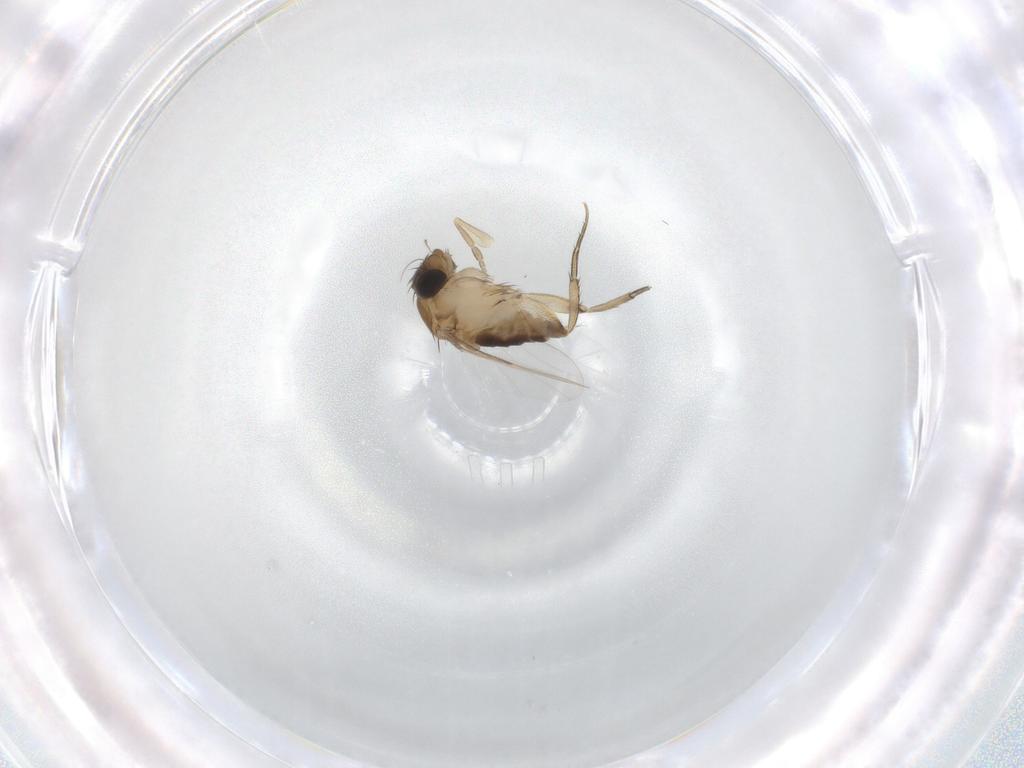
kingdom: Animalia
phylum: Arthropoda
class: Insecta
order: Diptera
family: Phoridae
